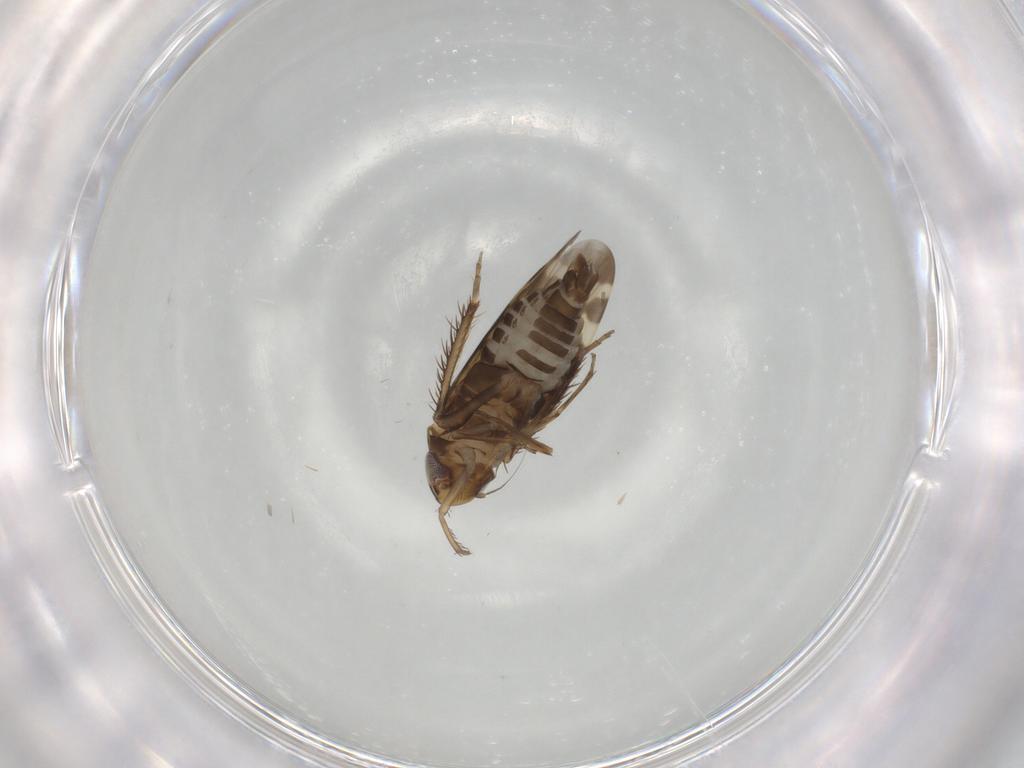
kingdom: Animalia
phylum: Arthropoda
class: Insecta
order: Hemiptera
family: Cicadellidae
